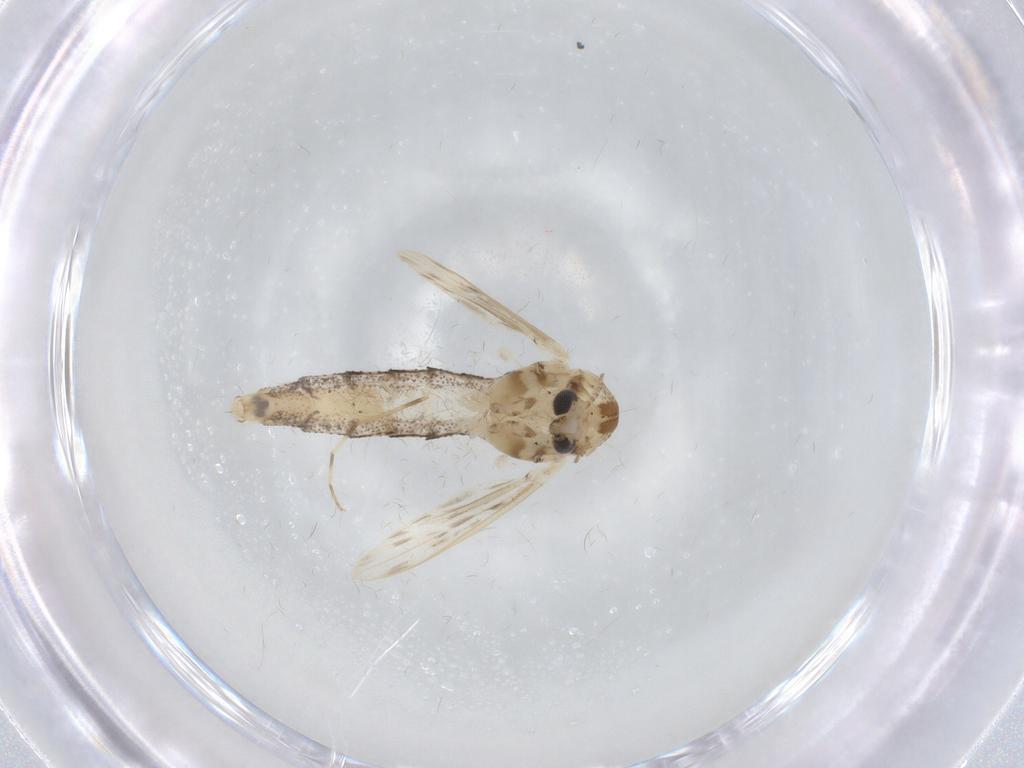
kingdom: Animalia
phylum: Arthropoda
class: Insecta
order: Diptera
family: Chaoboridae
